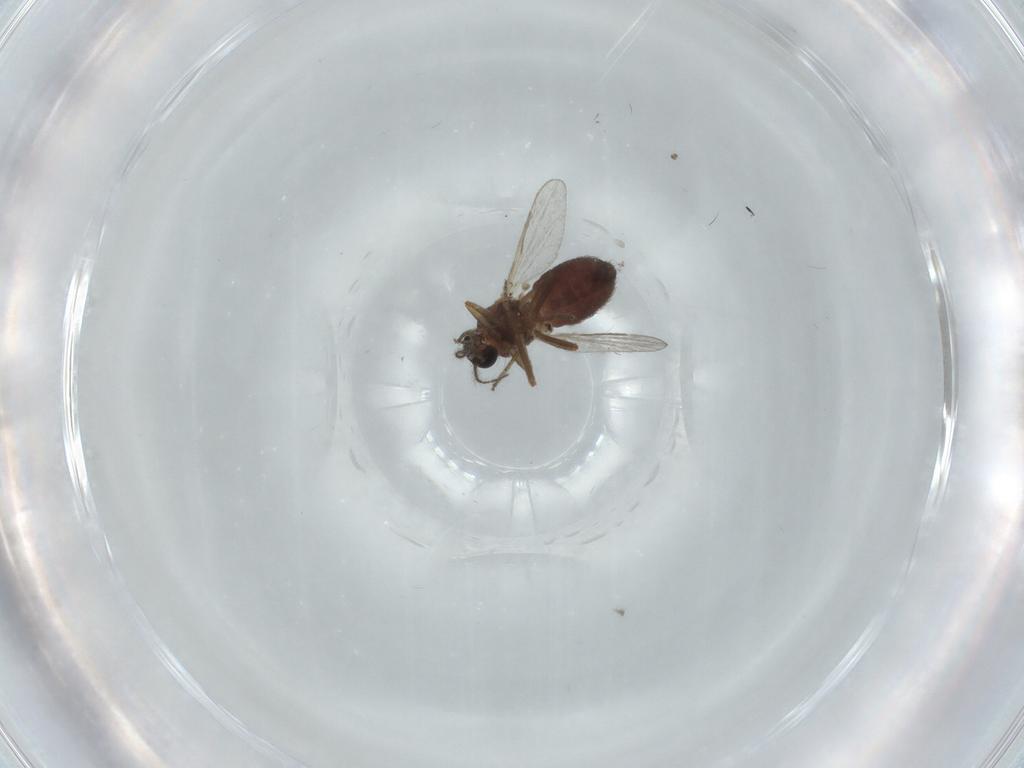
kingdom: Animalia
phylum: Arthropoda
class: Insecta
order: Diptera
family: Ceratopogonidae
